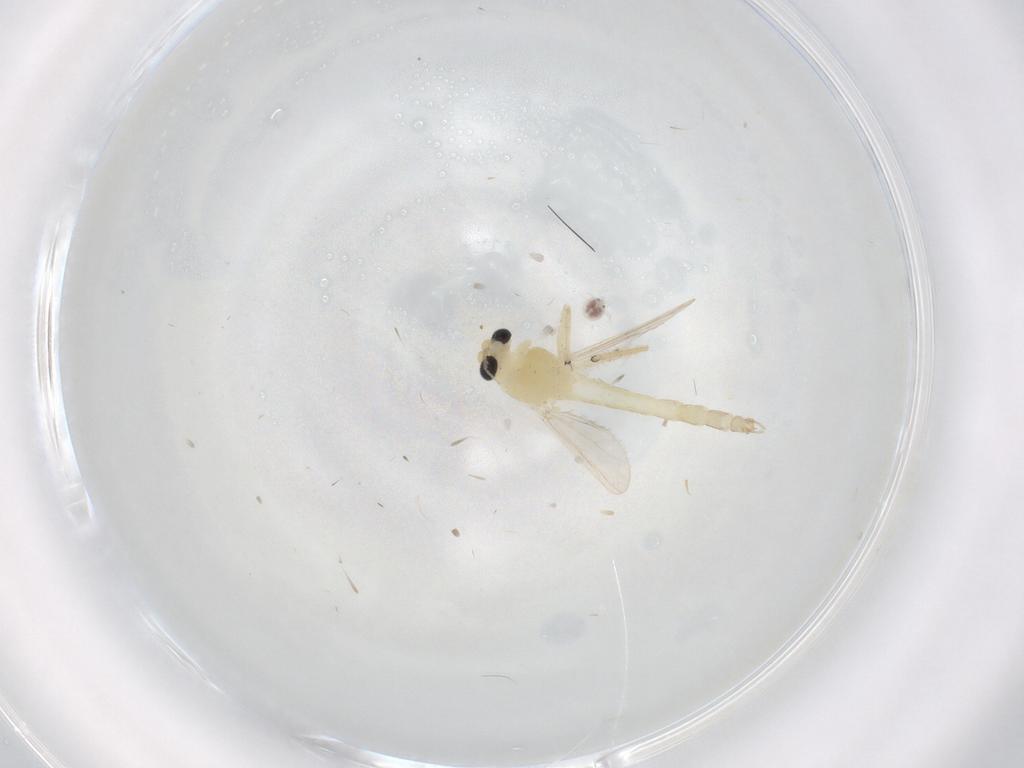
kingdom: Animalia
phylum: Arthropoda
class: Insecta
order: Diptera
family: Chironomidae
